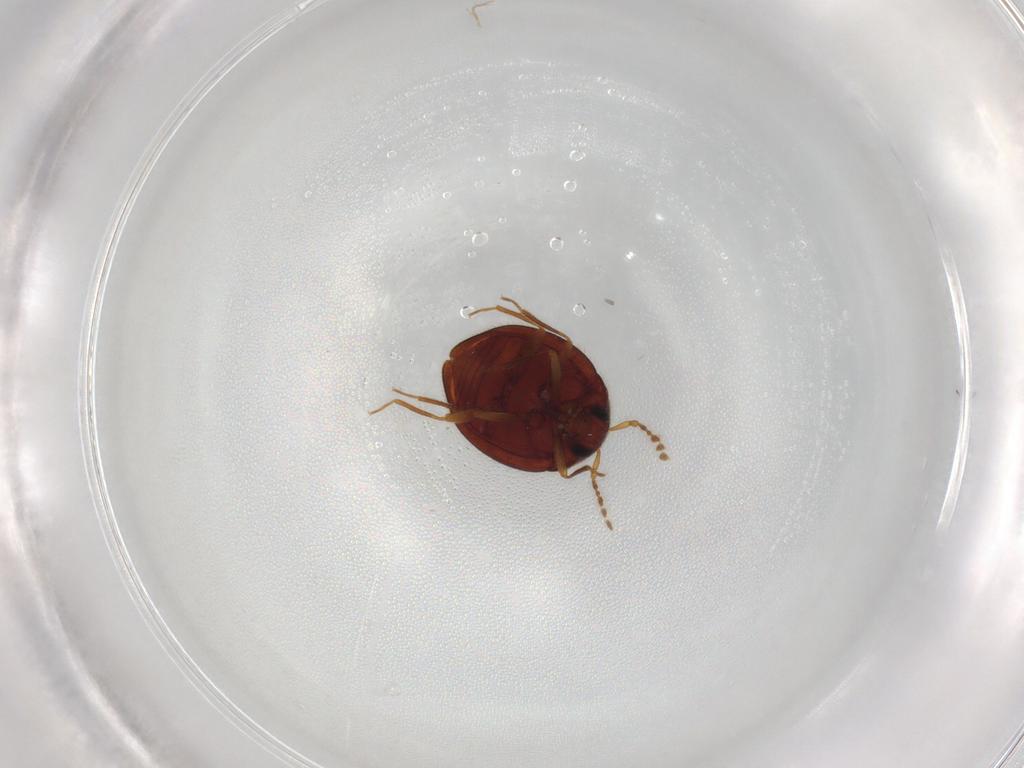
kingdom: Animalia
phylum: Arthropoda
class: Insecta
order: Coleoptera
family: Anamorphidae
